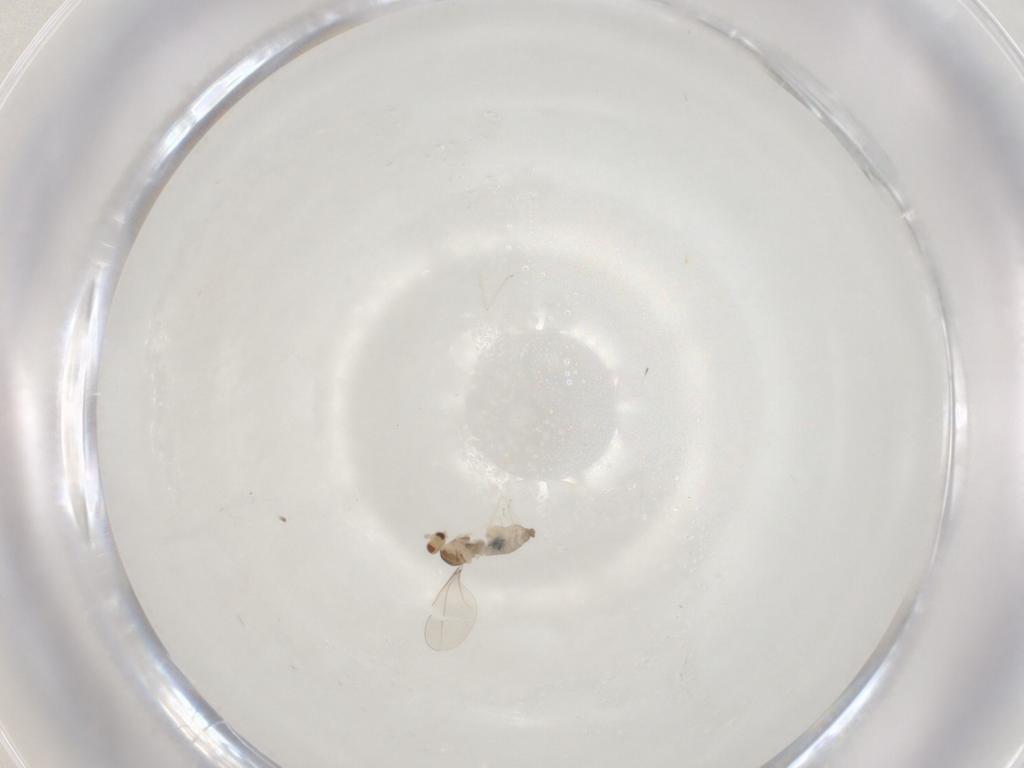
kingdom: Animalia
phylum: Arthropoda
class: Insecta
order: Diptera
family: Cecidomyiidae
